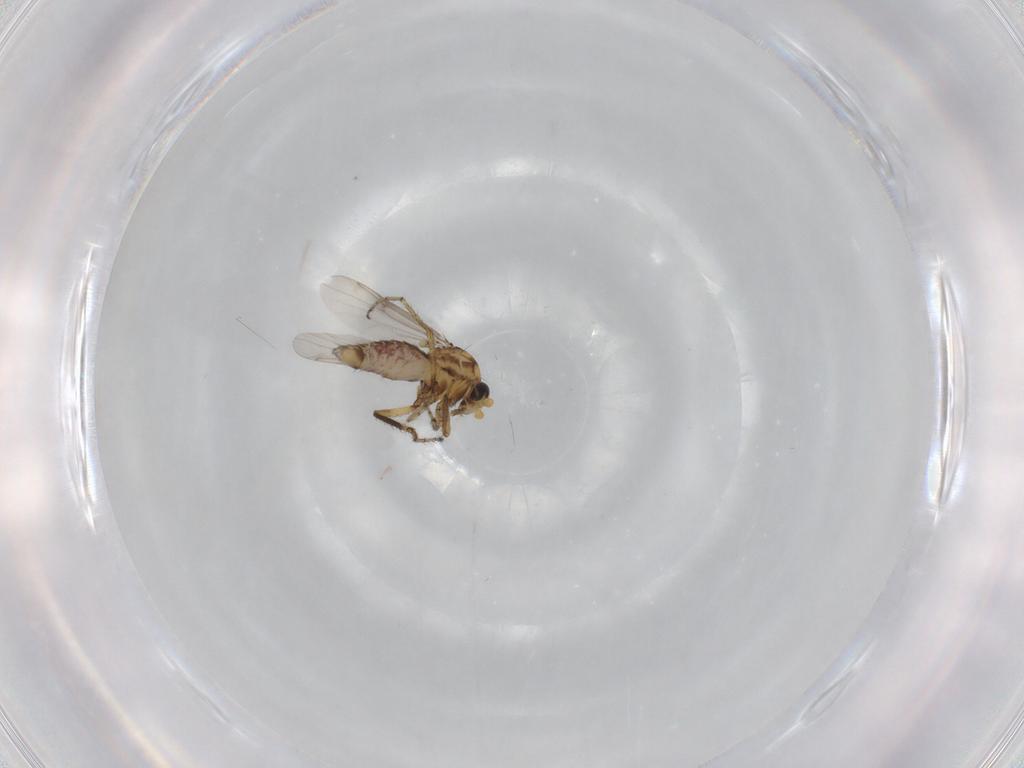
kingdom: Animalia
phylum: Arthropoda
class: Insecta
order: Diptera
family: Ceratopogonidae
